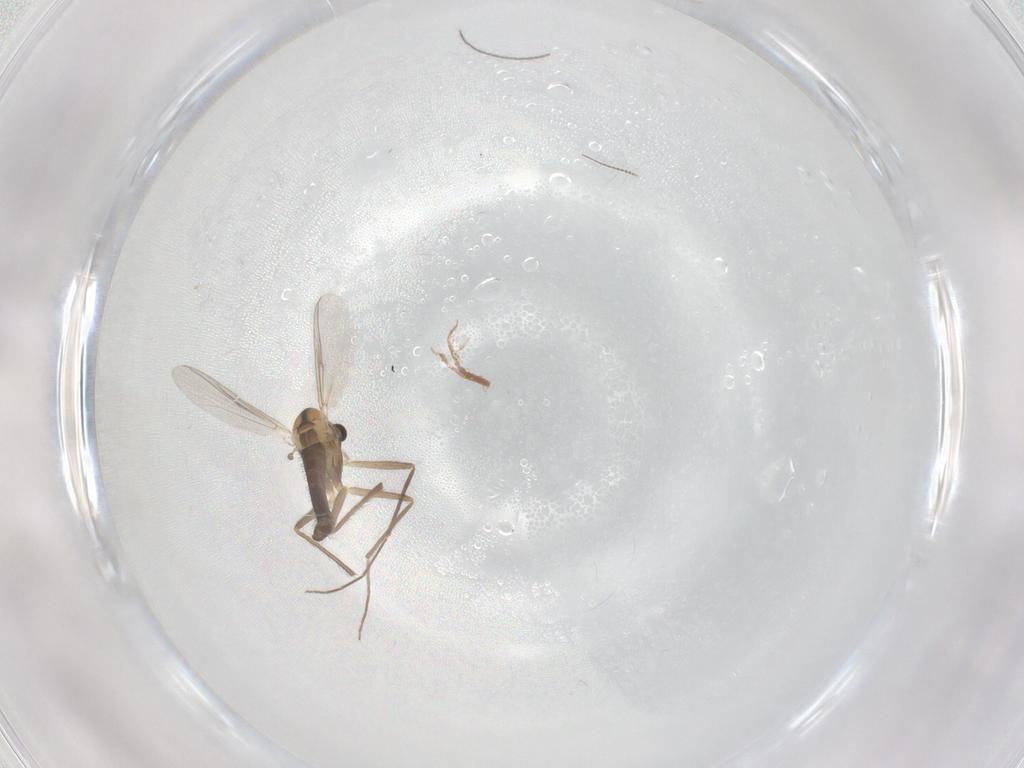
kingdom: Animalia
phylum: Arthropoda
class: Insecta
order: Diptera
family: Chironomidae
